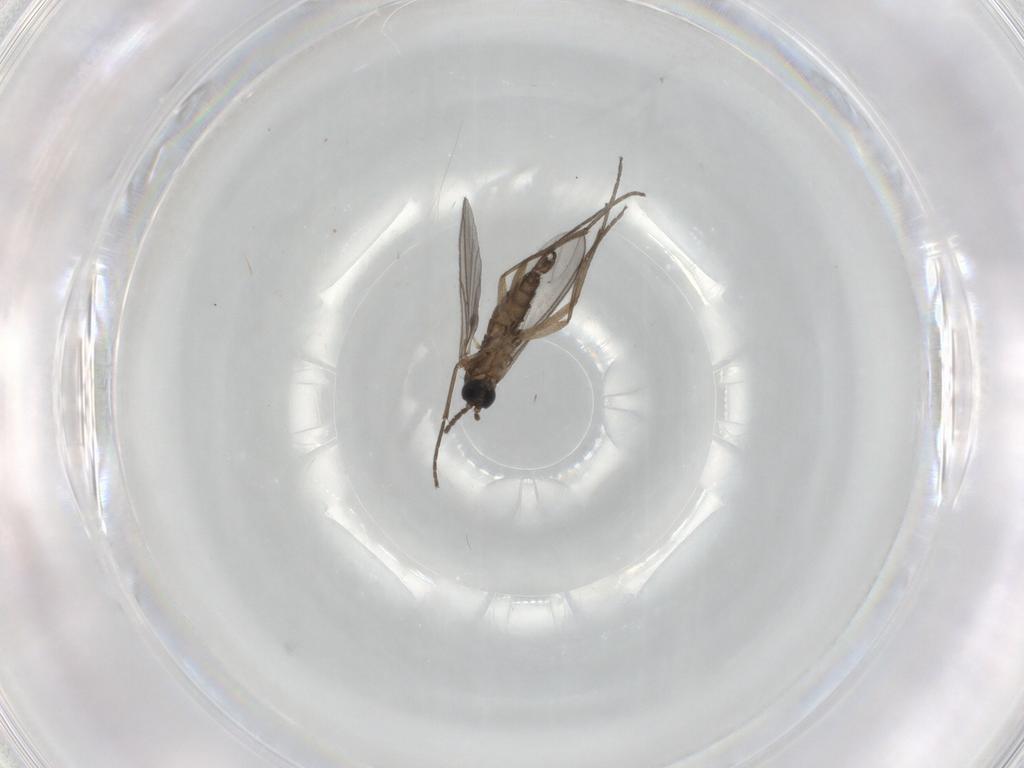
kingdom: Animalia
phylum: Arthropoda
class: Insecta
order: Diptera
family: Sciaridae
